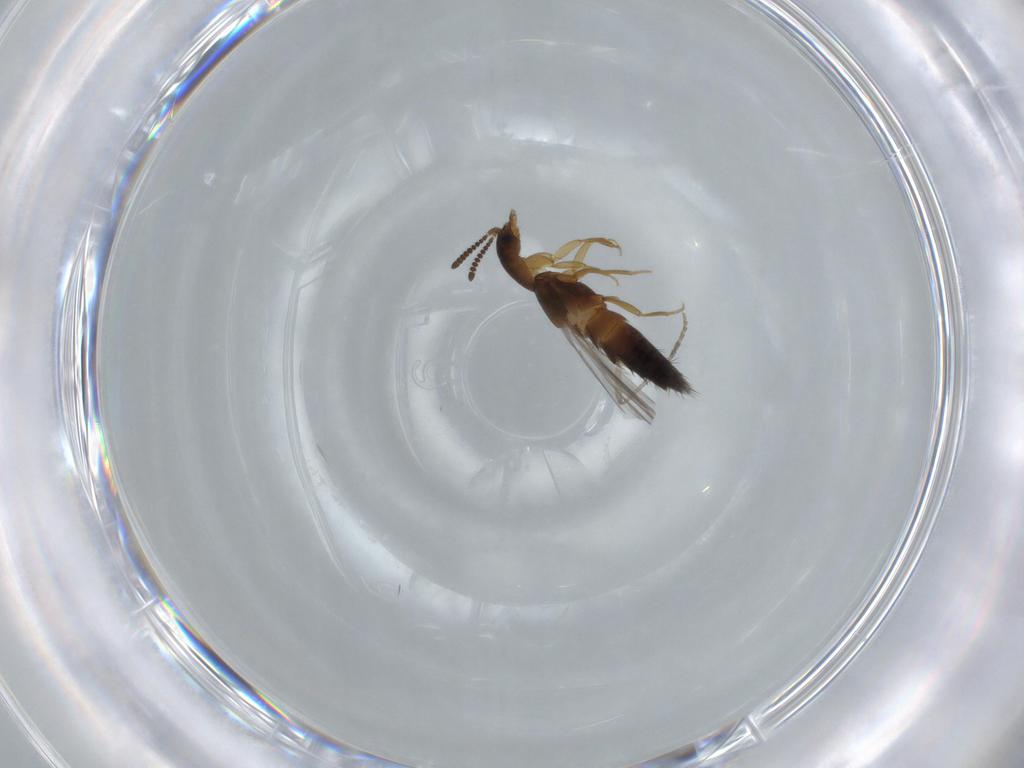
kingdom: Animalia
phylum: Arthropoda
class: Insecta
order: Coleoptera
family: Staphylinidae
